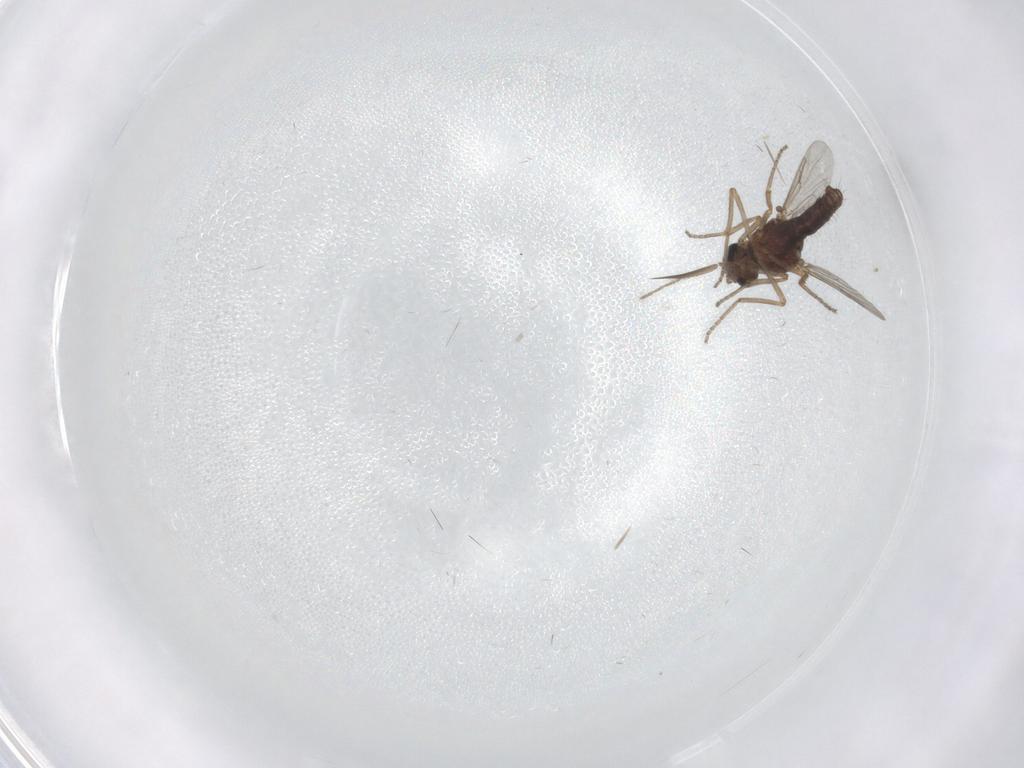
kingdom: Animalia
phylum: Arthropoda
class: Insecta
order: Diptera
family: Ceratopogonidae
